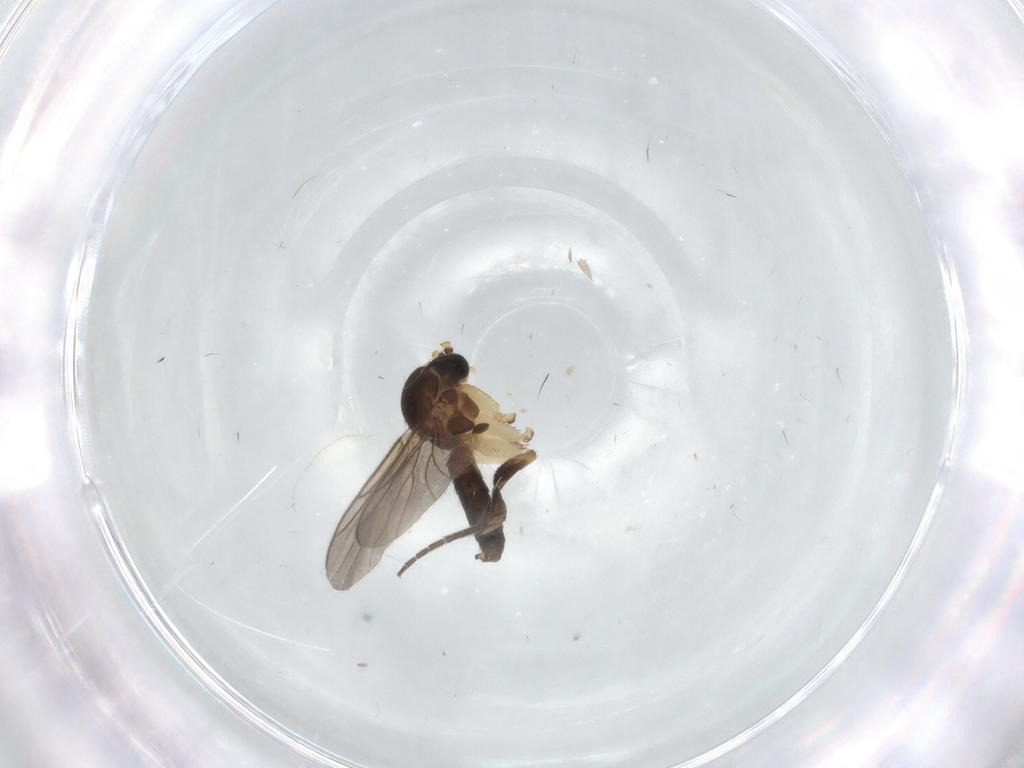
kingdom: Animalia
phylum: Arthropoda
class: Insecta
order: Diptera
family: Mycetophilidae
